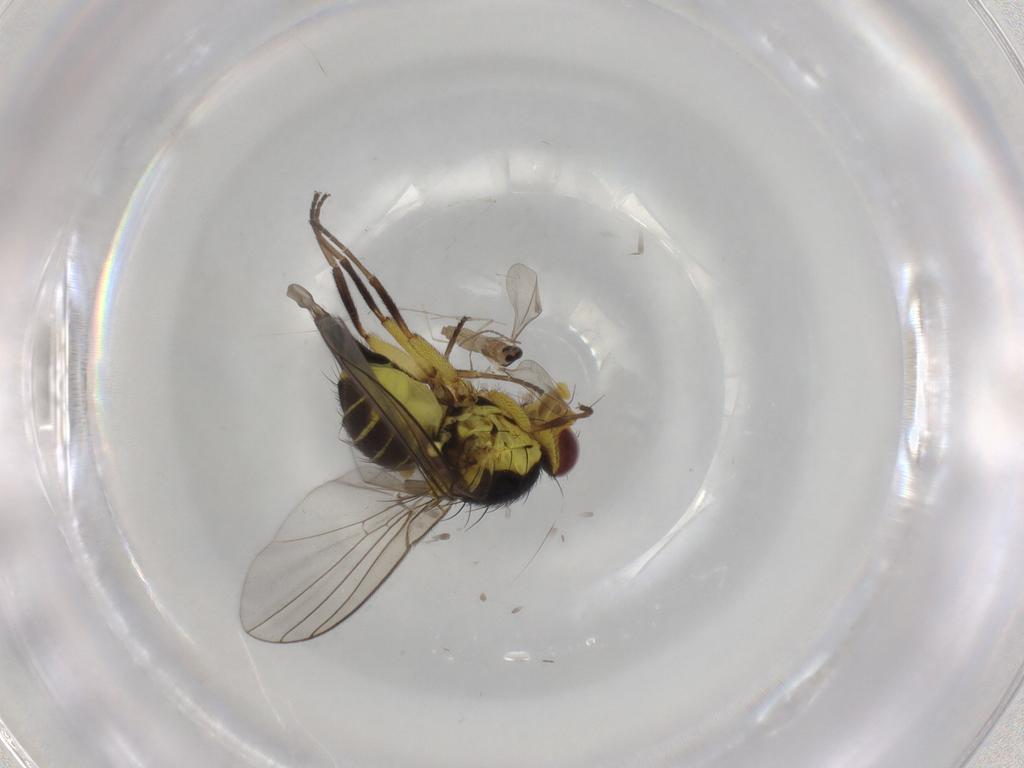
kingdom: Animalia
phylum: Arthropoda
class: Insecta
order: Diptera
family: Agromyzidae
